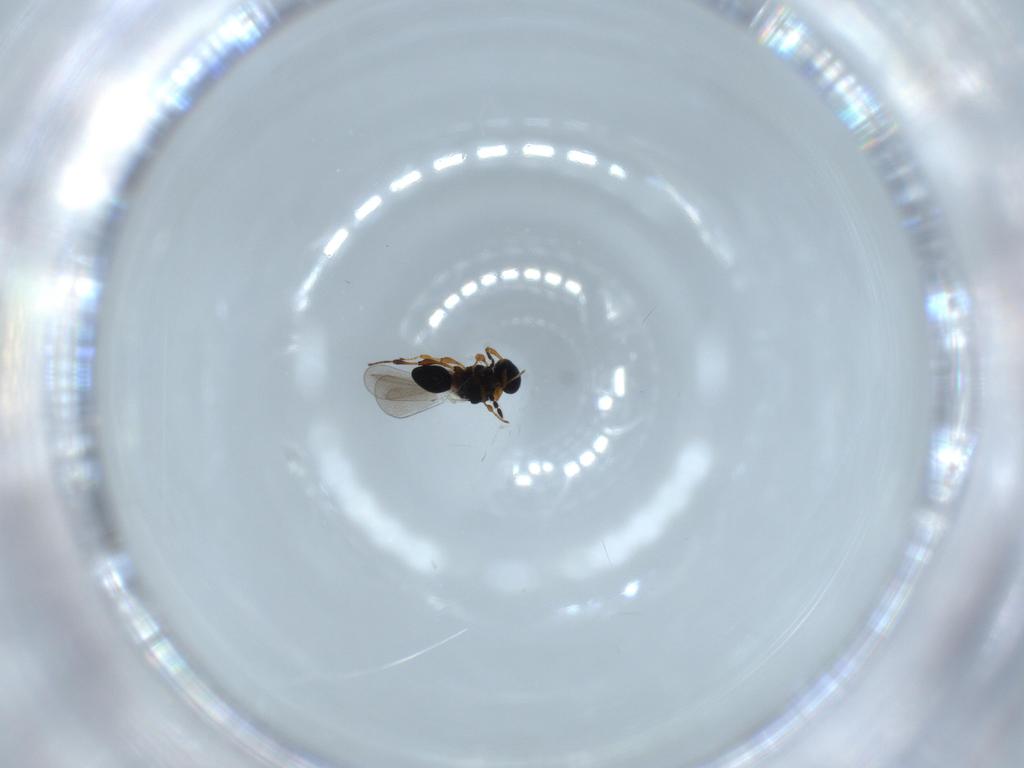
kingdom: Animalia
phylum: Arthropoda
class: Insecta
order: Hymenoptera
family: Platygastridae
